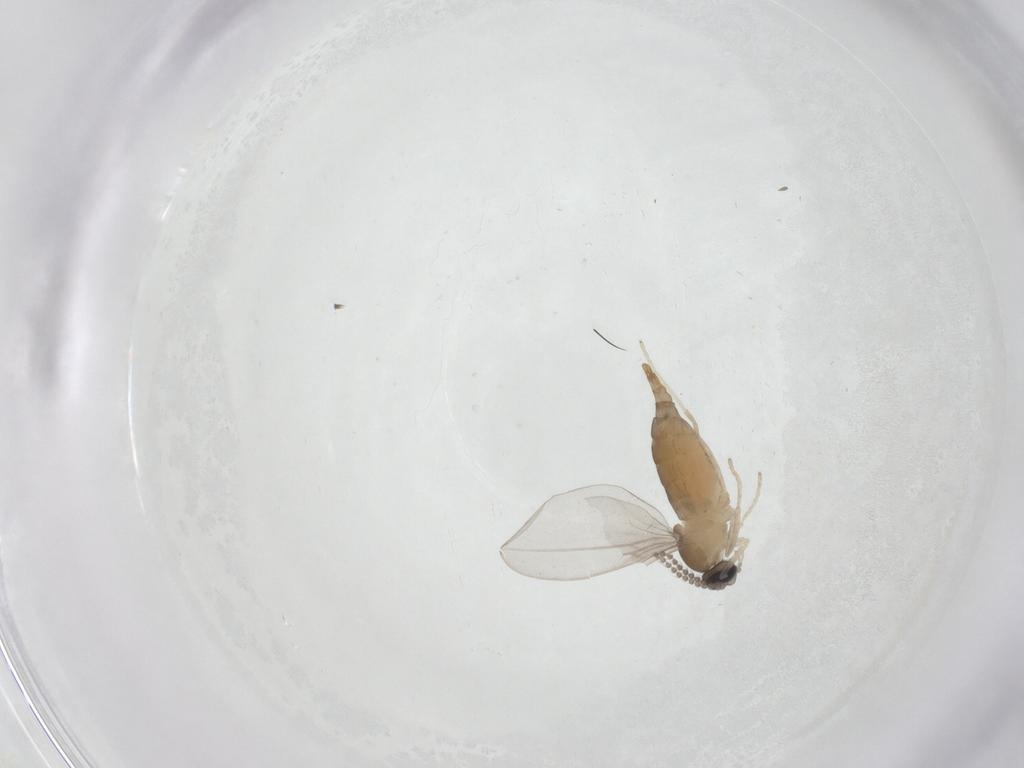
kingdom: Animalia
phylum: Arthropoda
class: Insecta
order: Diptera
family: Cecidomyiidae
